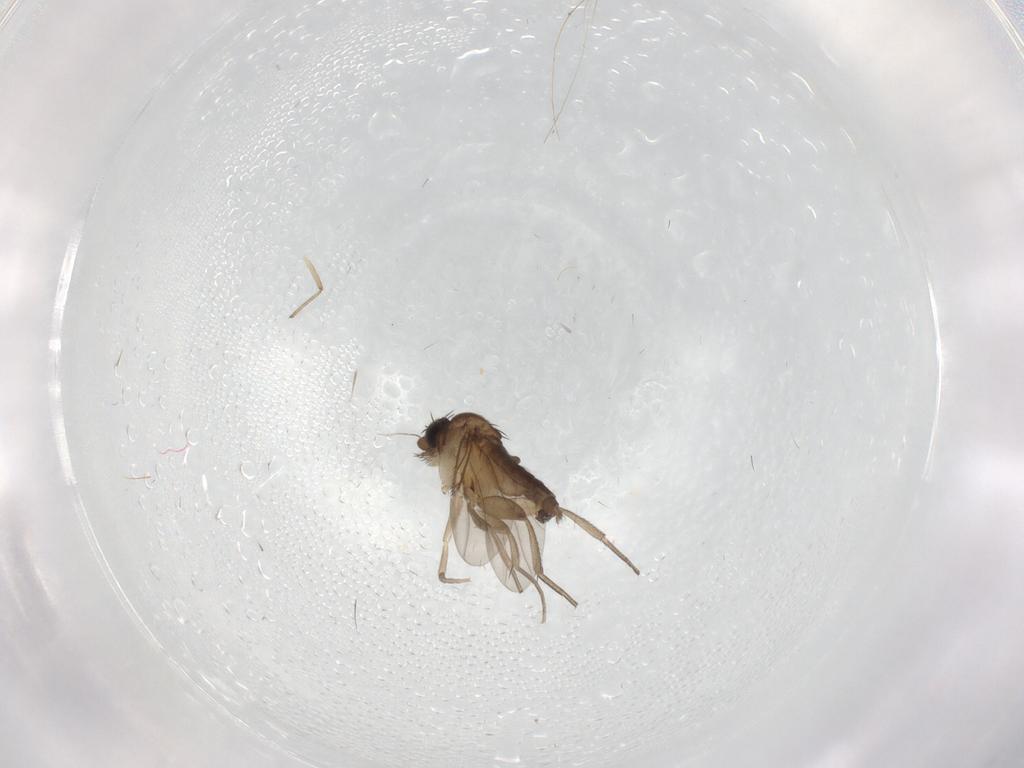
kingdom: Animalia
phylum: Arthropoda
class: Insecta
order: Diptera
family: Phoridae
